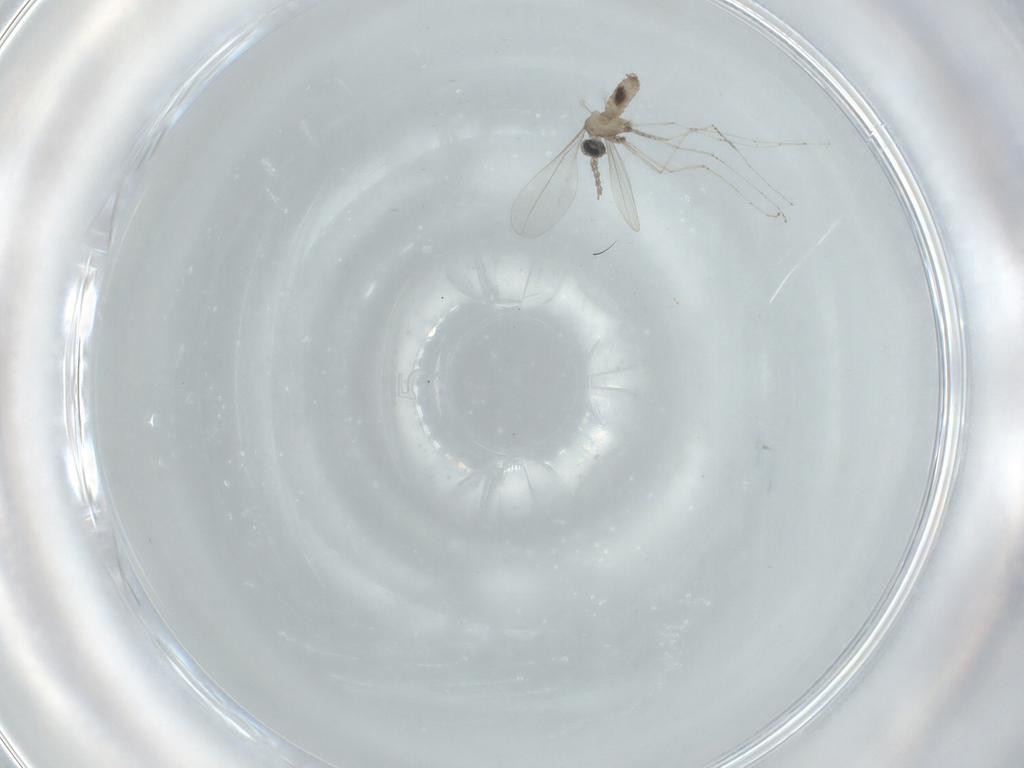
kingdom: Animalia
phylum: Arthropoda
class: Insecta
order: Diptera
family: Cecidomyiidae
